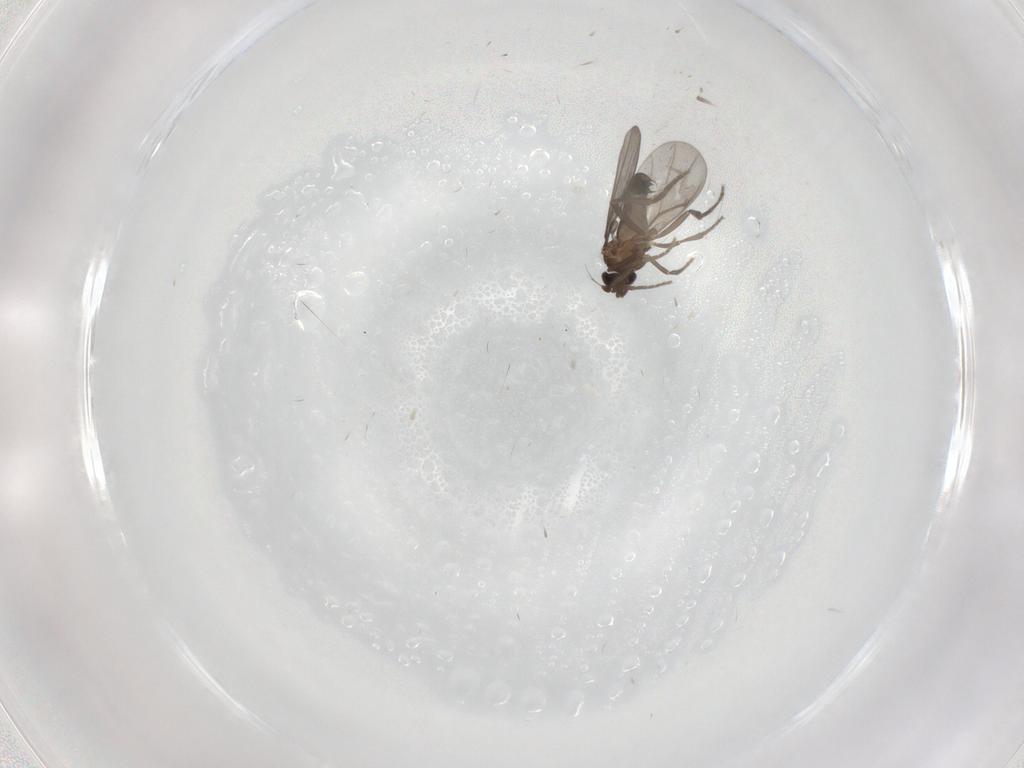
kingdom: Animalia
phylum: Arthropoda
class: Insecta
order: Diptera
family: Phoridae
